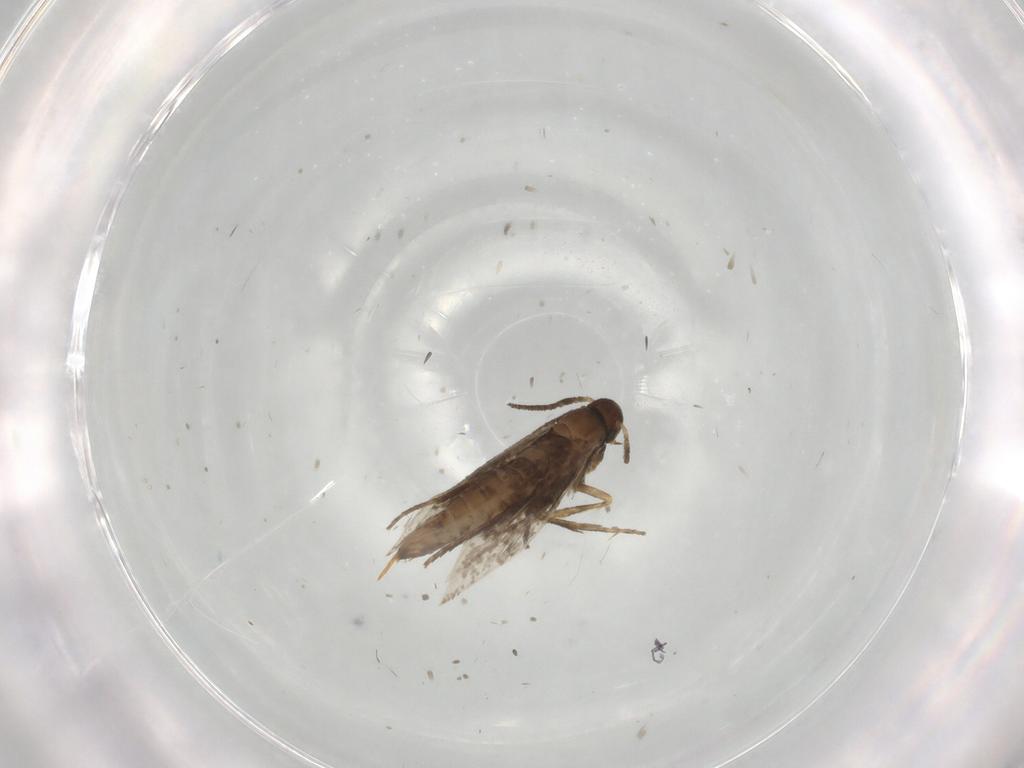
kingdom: Animalia
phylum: Arthropoda
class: Insecta
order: Lepidoptera
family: Heliozelidae
